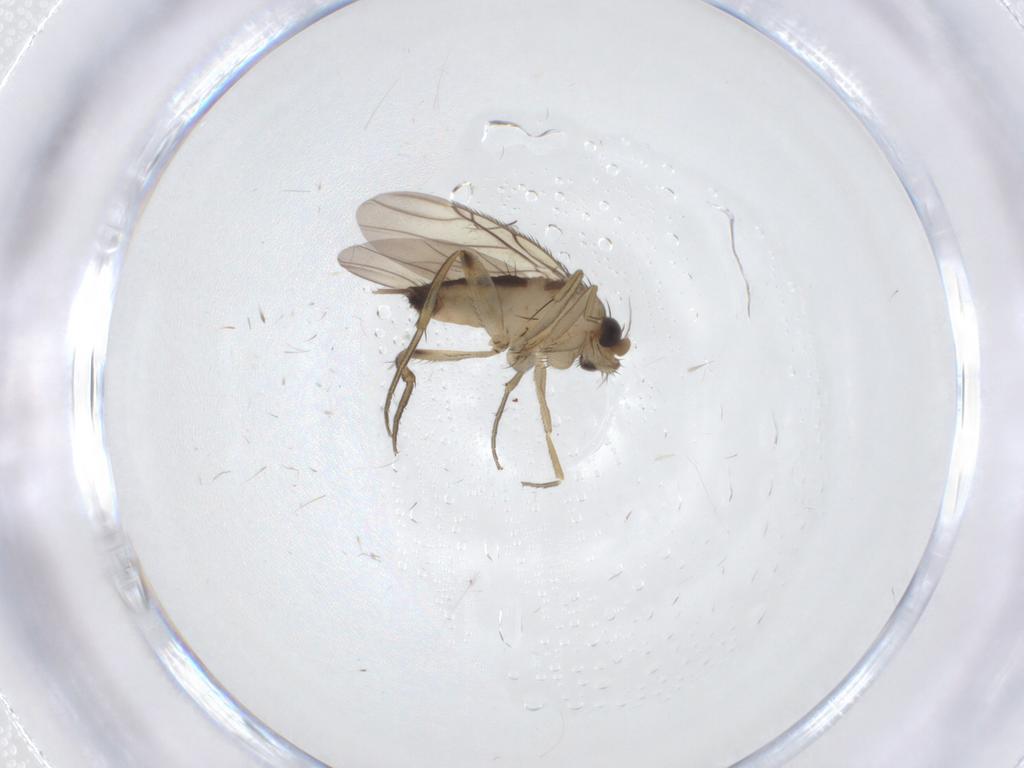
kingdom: Animalia
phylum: Arthropoda
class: Insecta
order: Diptera
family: Phoridae
